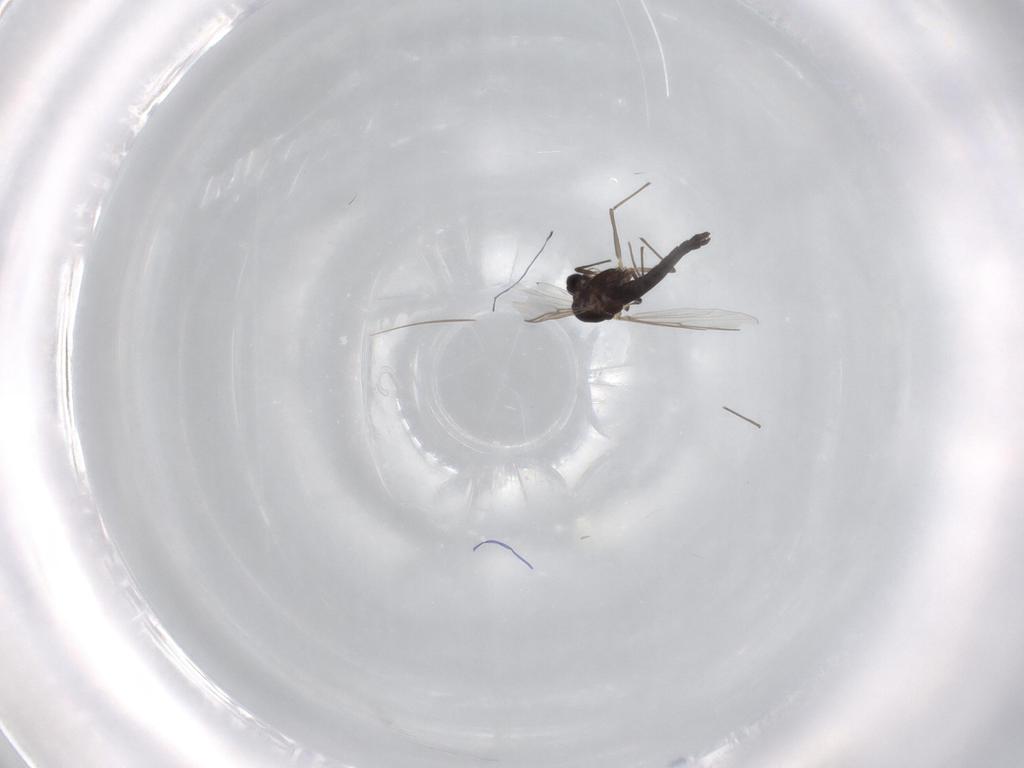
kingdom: Animalia
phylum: Arthropoda
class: Insecta
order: Diptera
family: Chironomidae
